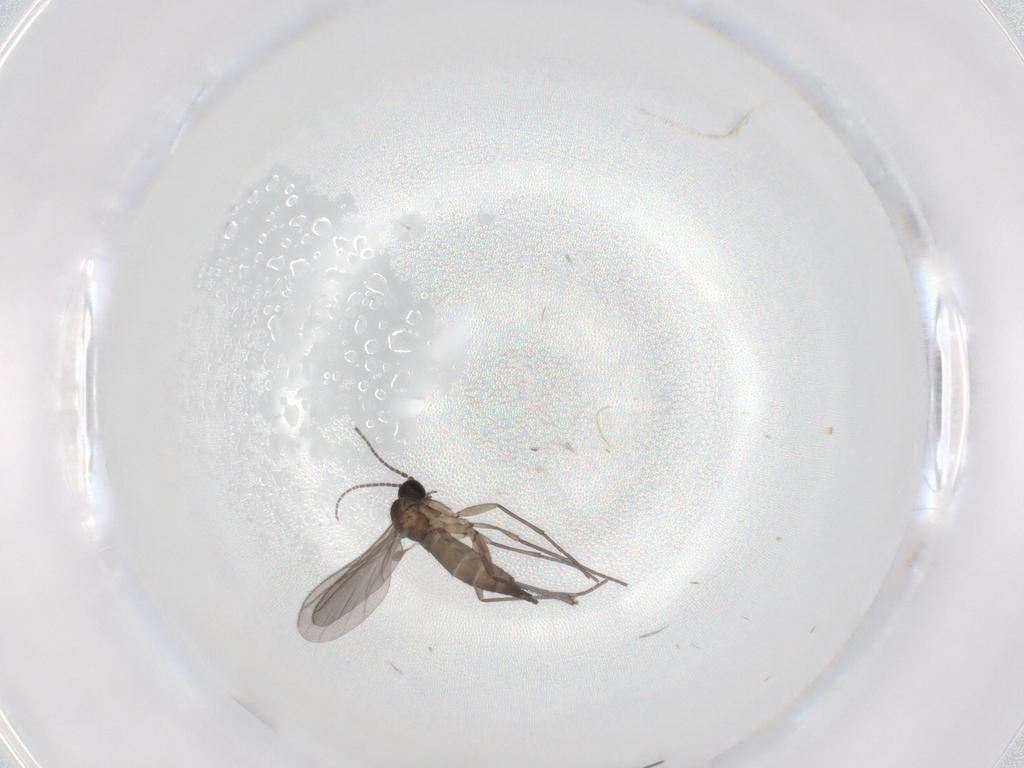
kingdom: Animalia
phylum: Arthropoda
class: Insecta
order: Diptera
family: Sciaridae
